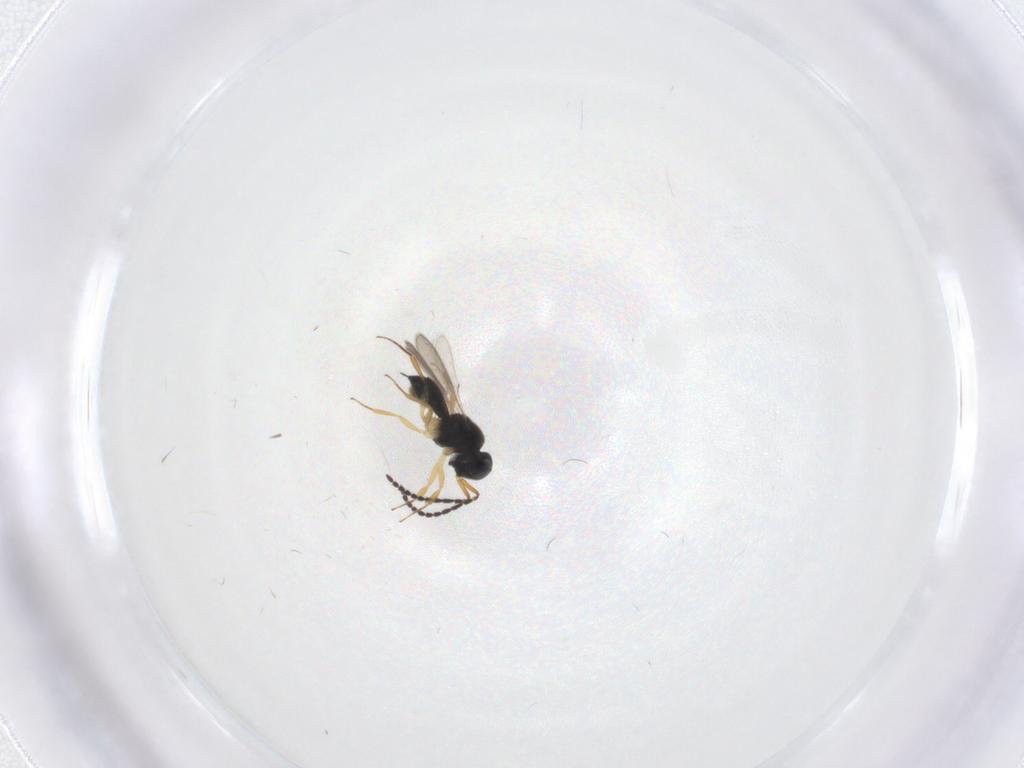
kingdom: Animalia
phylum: Arthropoda
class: Insecta
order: Hymenoptera
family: Scelionidae
